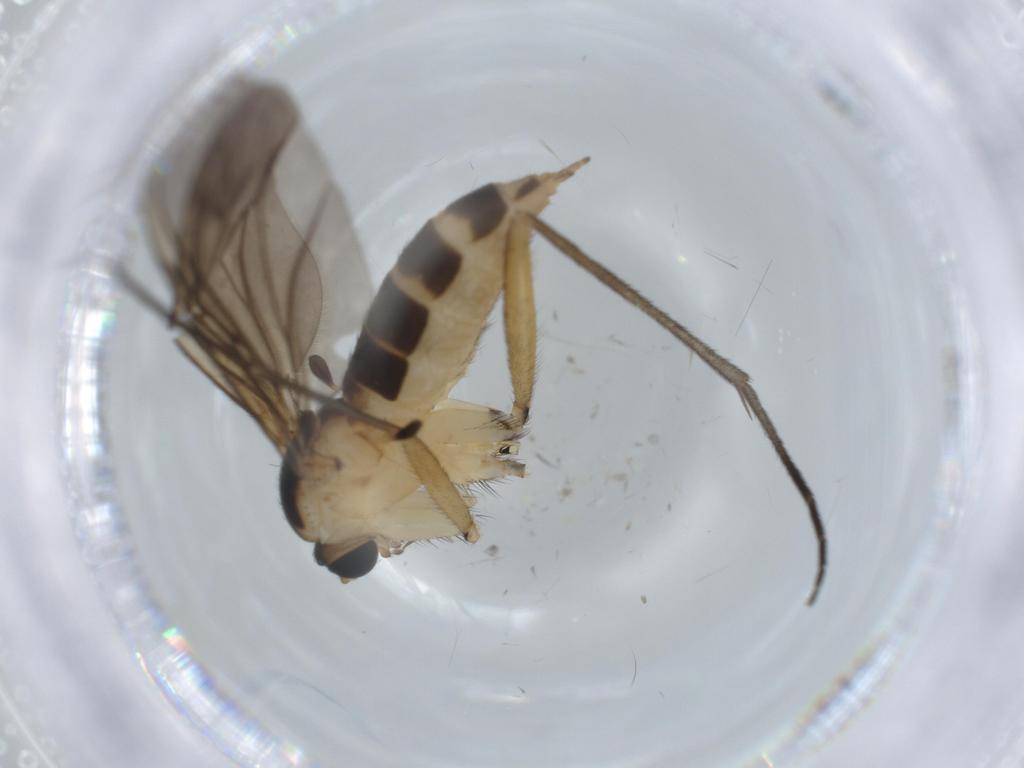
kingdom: Animalia
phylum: Arthropoda
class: Insecta
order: Diptera
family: Sciaridae
